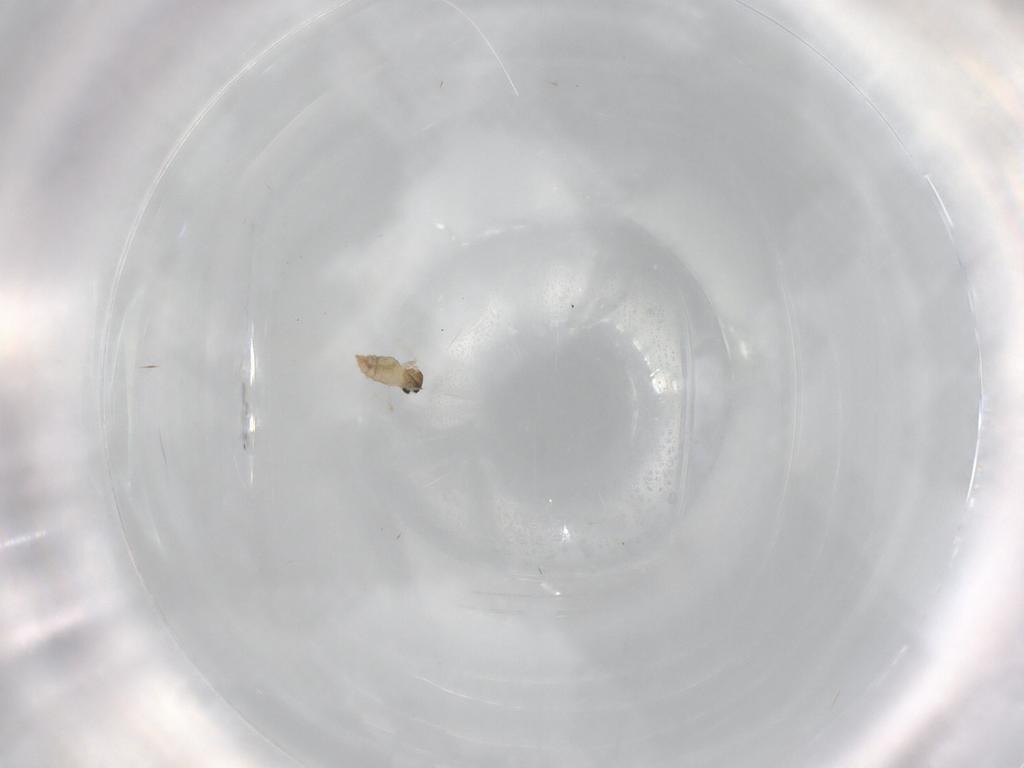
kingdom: Animalia
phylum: Arthropoda
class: Insecta
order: Diptera
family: Cecidomyiidae
